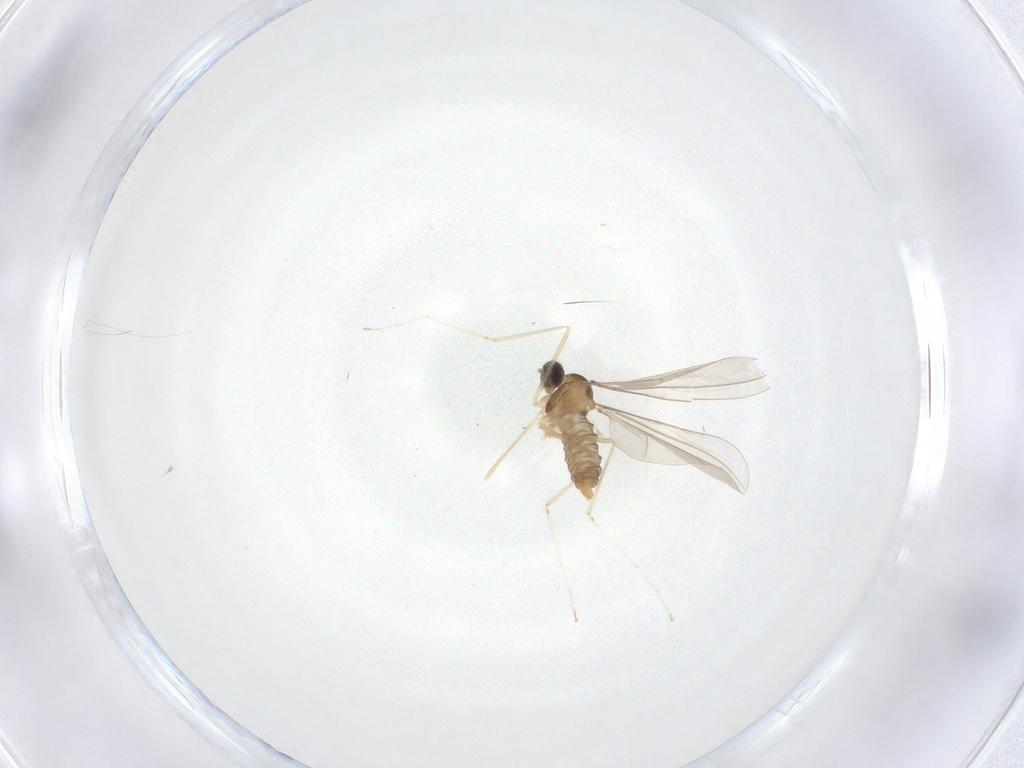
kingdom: Animalia
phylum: Arthropoda
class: Insecta
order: Diptera
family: Cecidomyiidae
